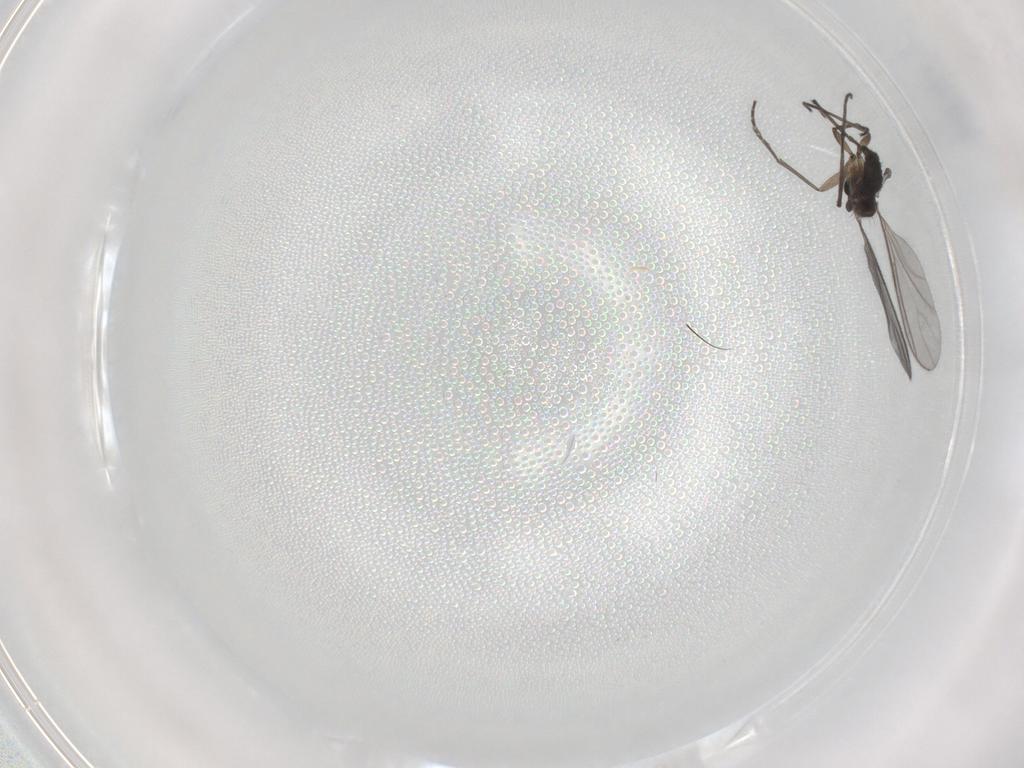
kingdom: Animalia
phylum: Arthropoda
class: Insecta
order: Diptera
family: Sciaridae
